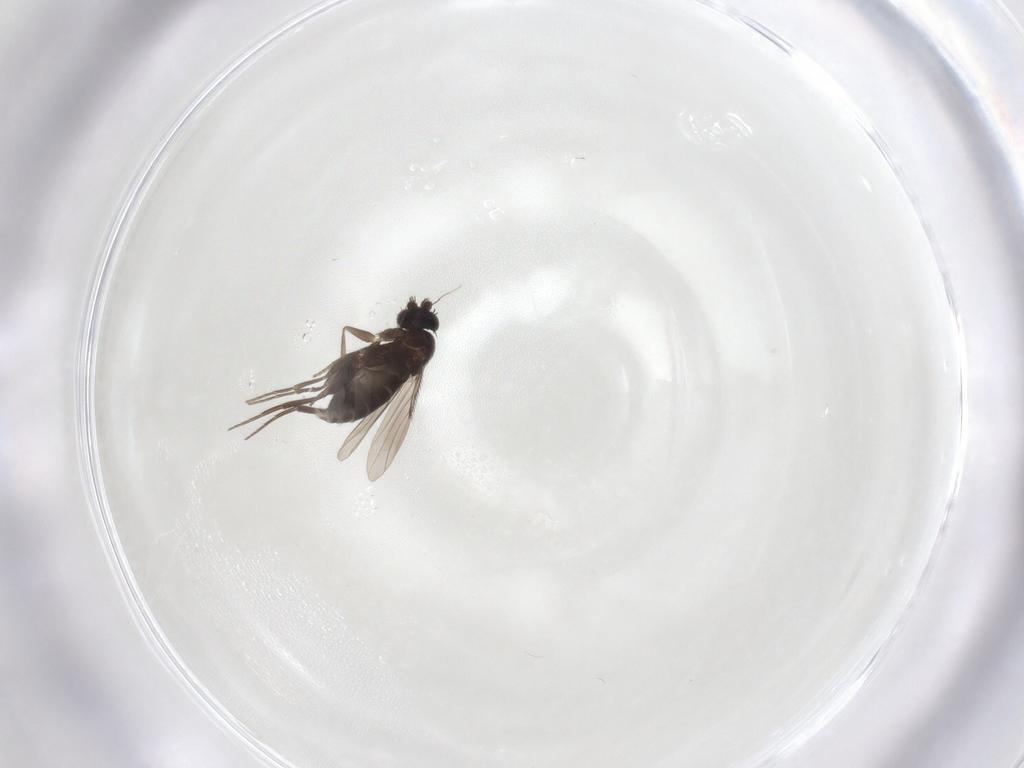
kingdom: Animalia
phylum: Arthropoda
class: Insecta
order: Diptera
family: Phoridae
